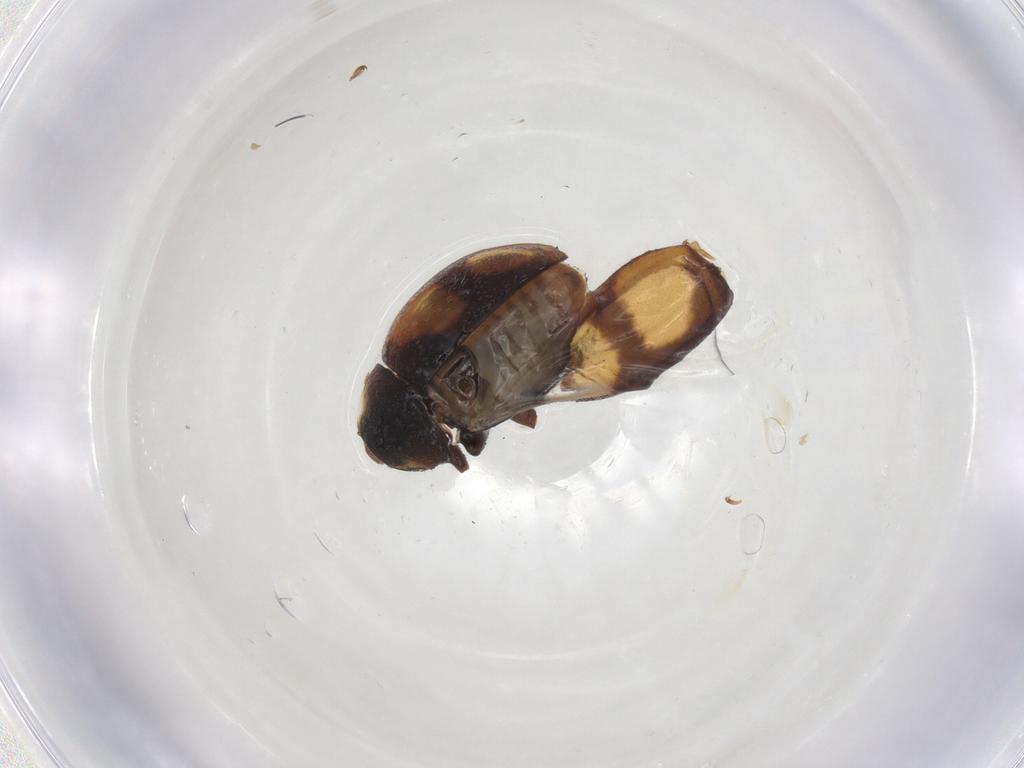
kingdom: Animalia
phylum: Arthropoda
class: Insecta
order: Coleoptera
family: Coccinellidae
